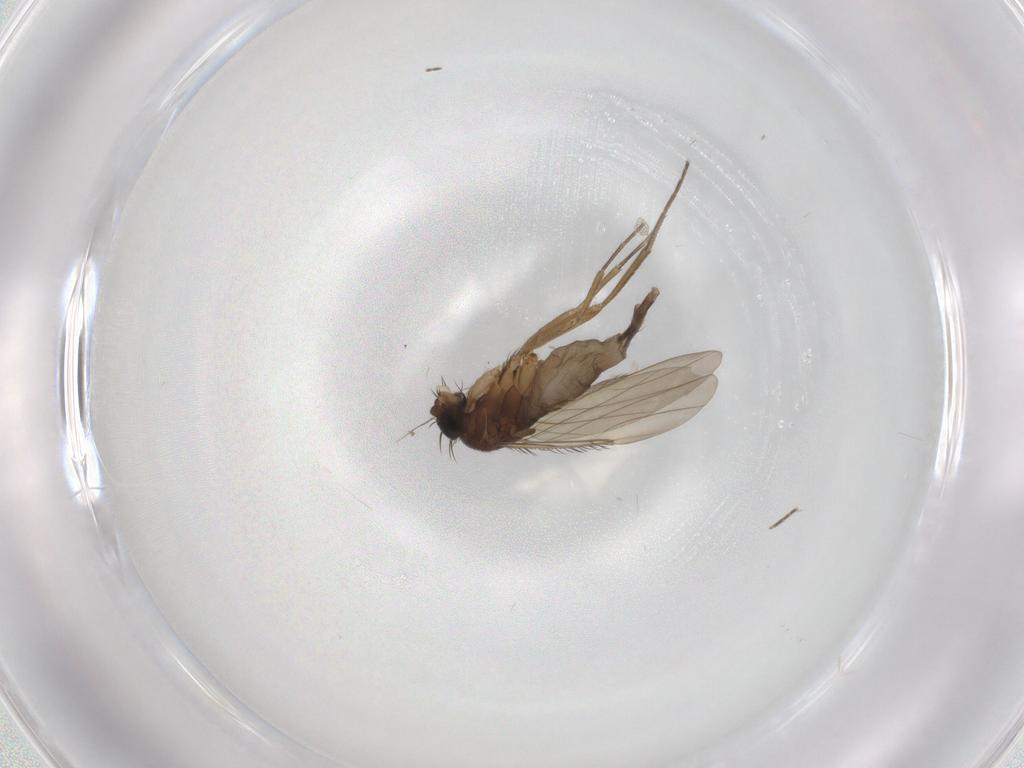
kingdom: Animalia
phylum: Arthropoda
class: Insecta
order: Diptera
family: Phoridae
